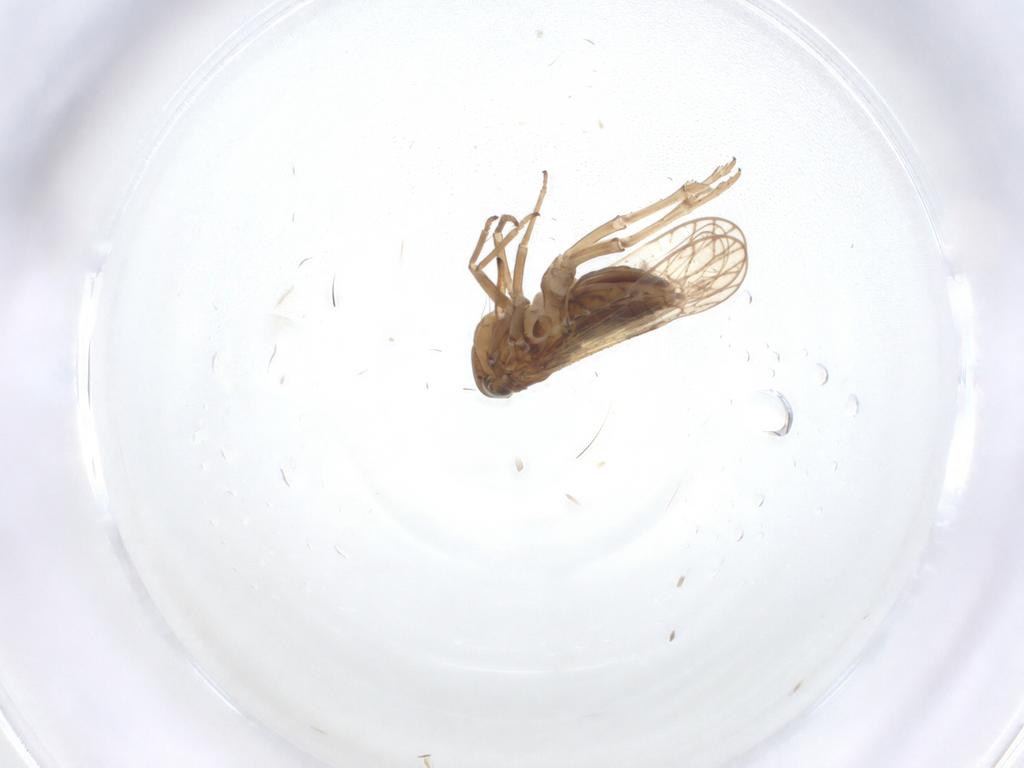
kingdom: Animalia
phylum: Arthropoda
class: Insecta
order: Hemiptera
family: Delphacidae
